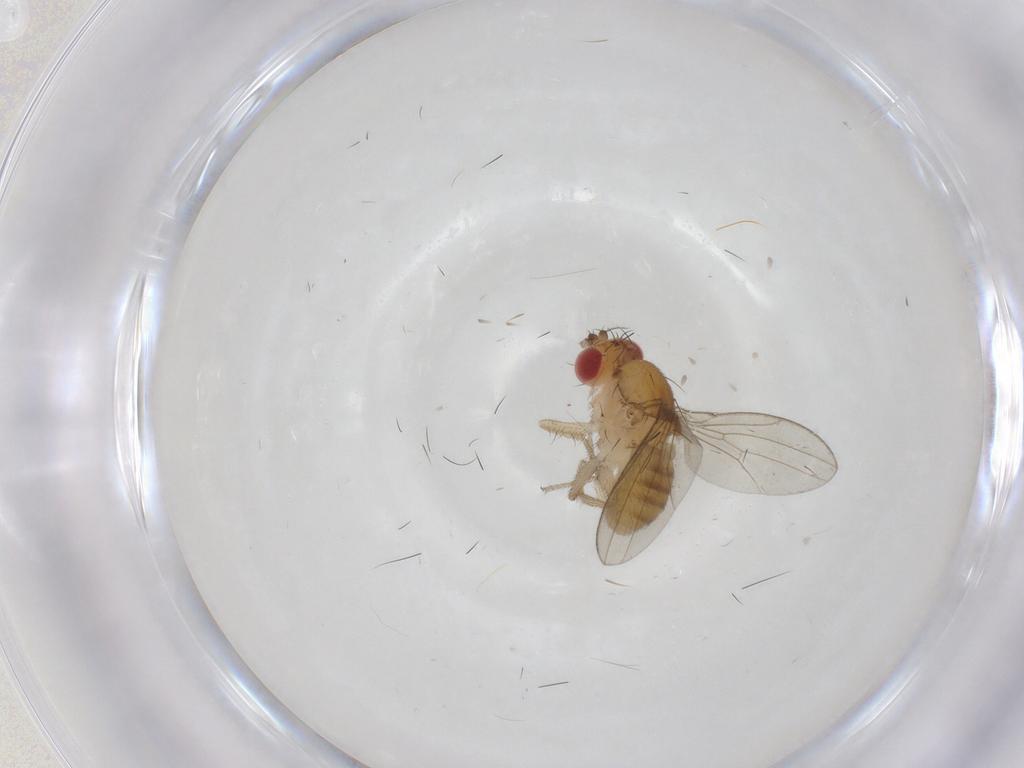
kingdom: Animalia
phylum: Arthropoda
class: Insecta
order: Diptera
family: Drosophilidae
